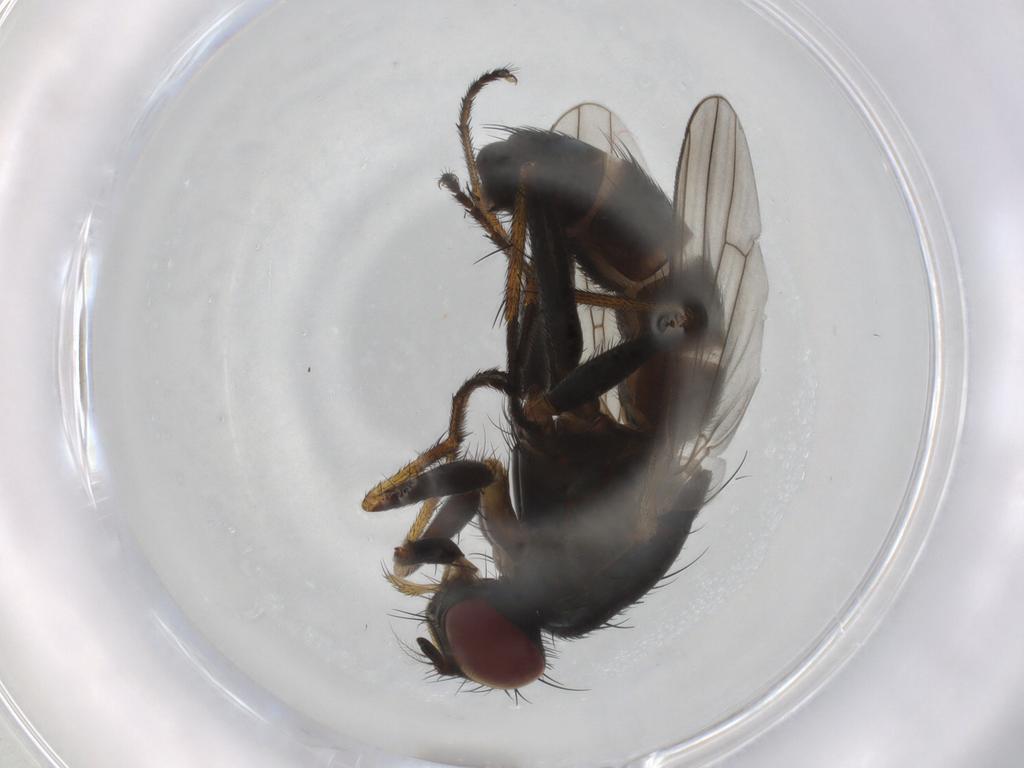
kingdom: Animalia
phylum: Arthropoda
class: Insecta
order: Diptera
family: Muscidae
